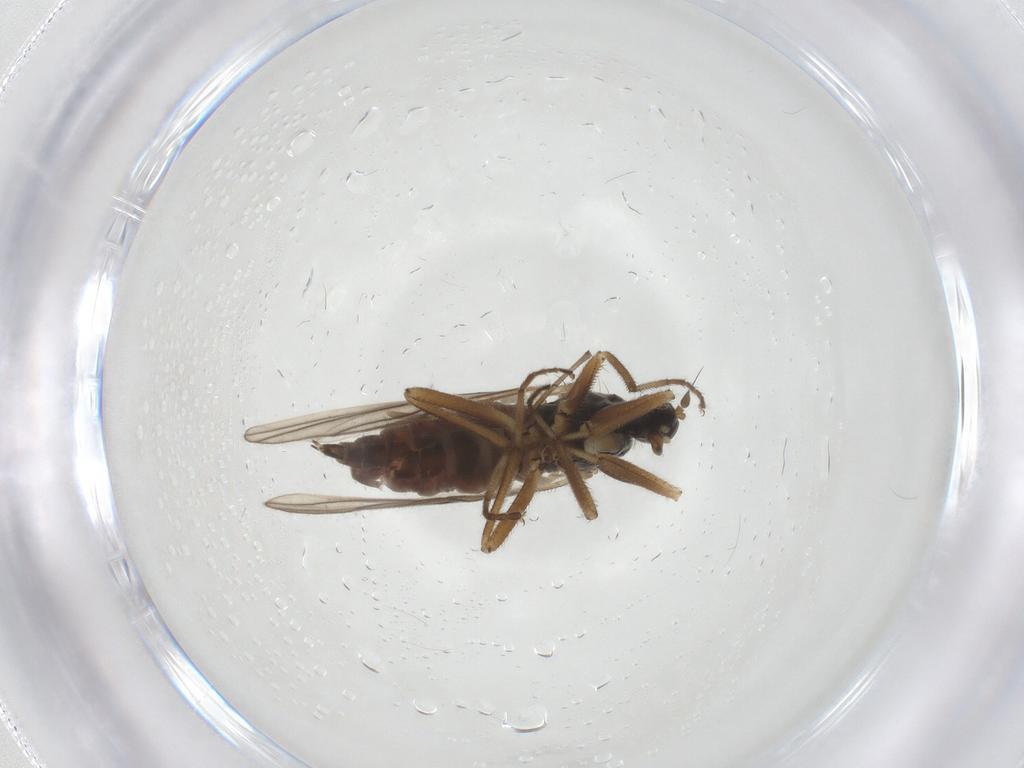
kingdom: Animalia
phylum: Arthropoda
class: Insecta
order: Diptera
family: Hybotidae
